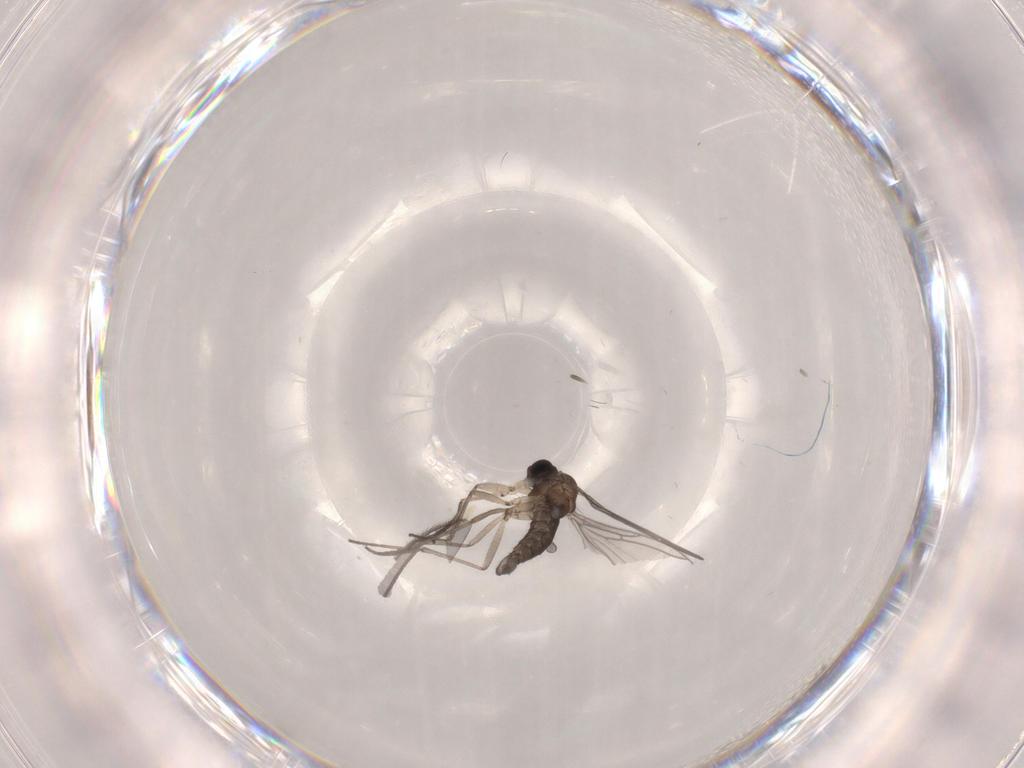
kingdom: Animalia
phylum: Arthropoda
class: Insecta
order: Diptera
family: Sciaridae
